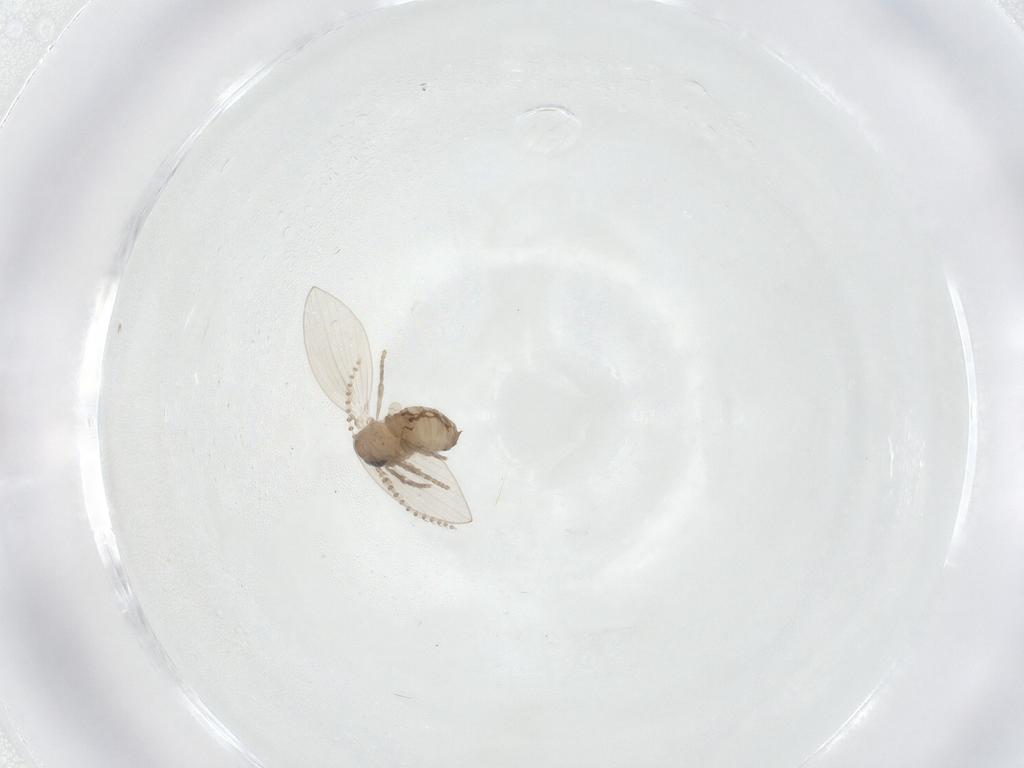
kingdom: Animalia
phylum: Arthropoda
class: Insecta
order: Diptera
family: Psychodidae
